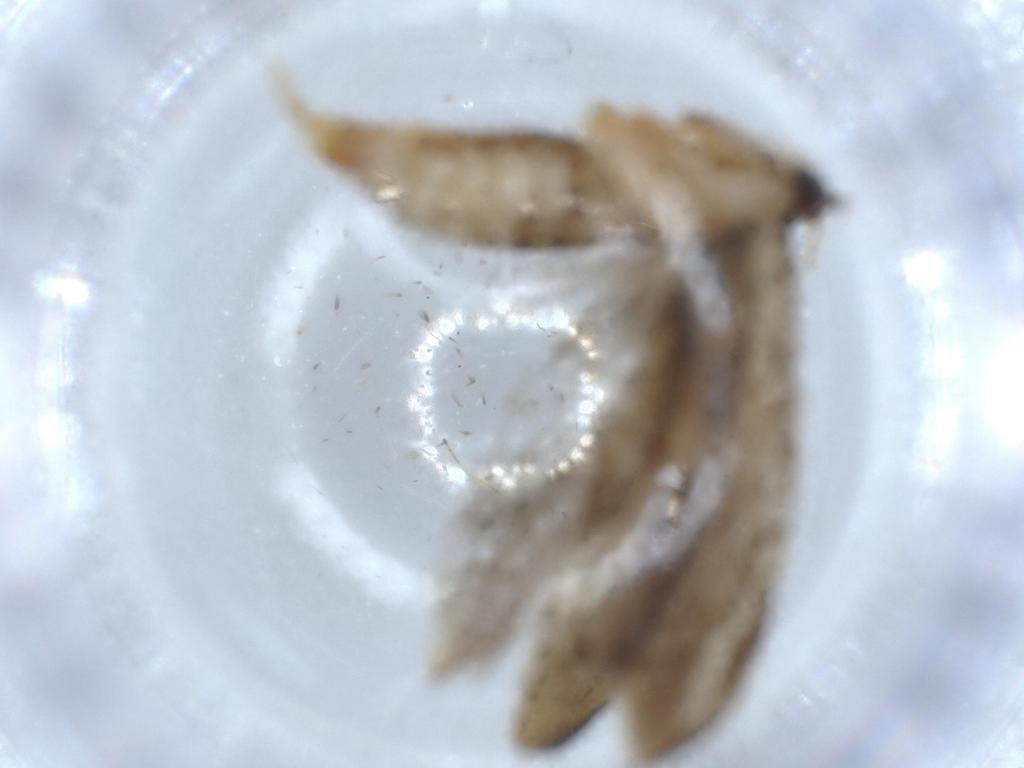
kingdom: Animalia
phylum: Arthropoda
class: Insecta
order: Lepidoptera
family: Tineidae
